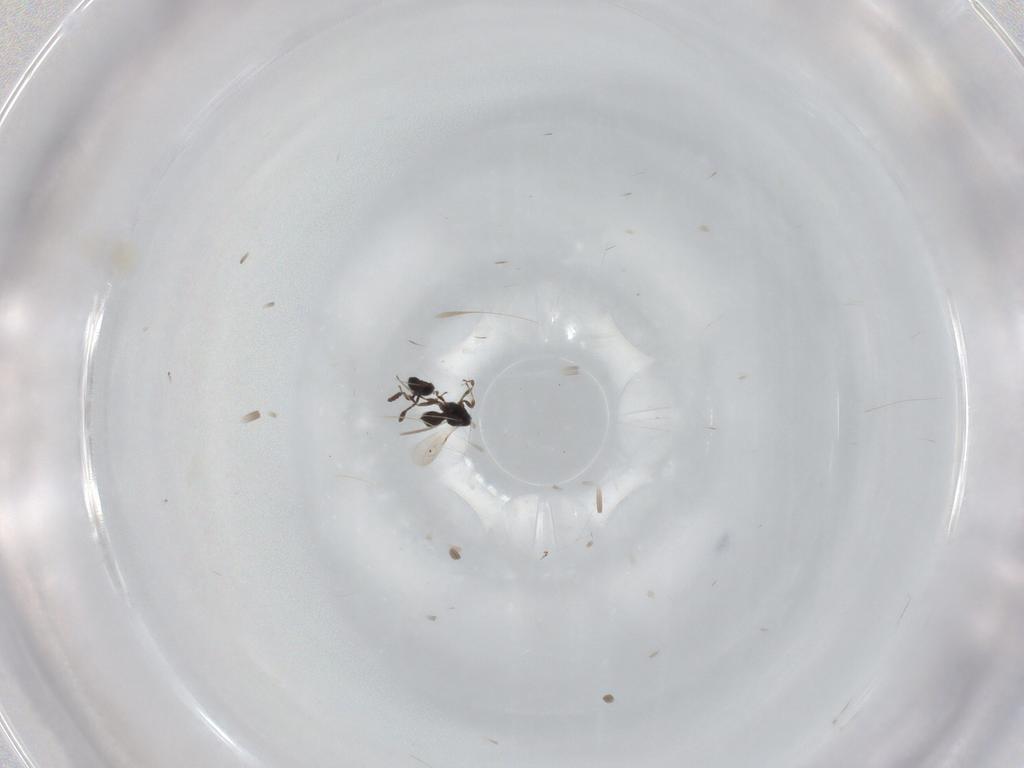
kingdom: Animalia
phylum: Arthropoda
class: Insecta
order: Hymenoptera
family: Scelionidae
